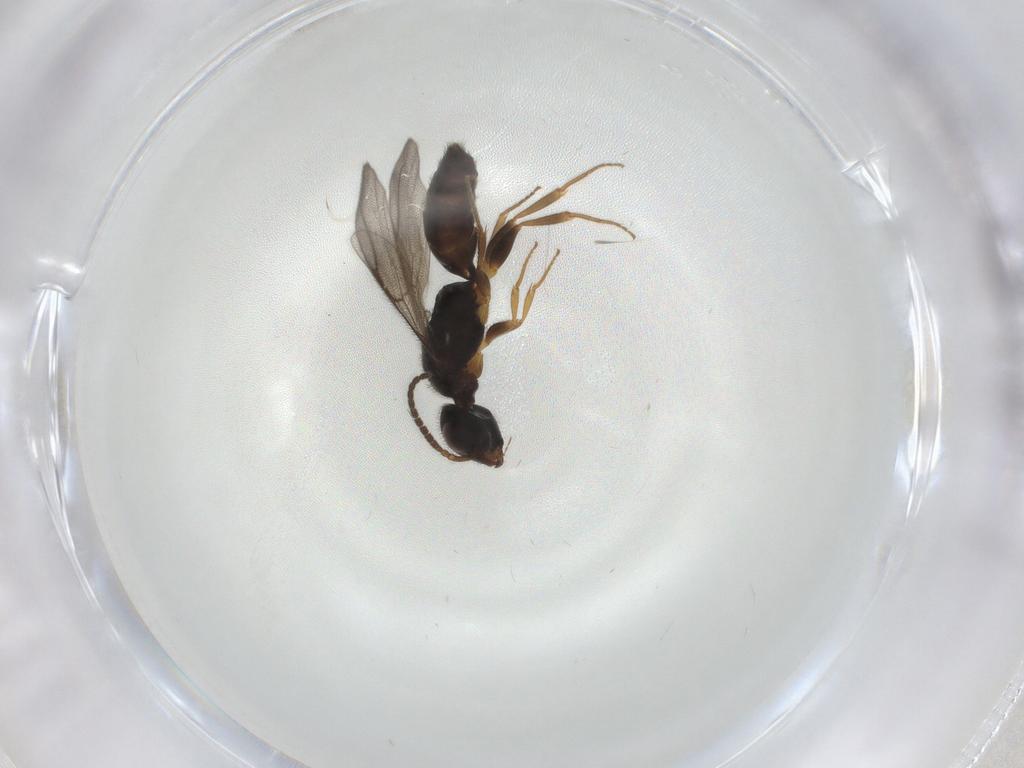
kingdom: Animalia
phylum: Arthropoda
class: Insecta
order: Hymenoptera
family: Bethylidae
